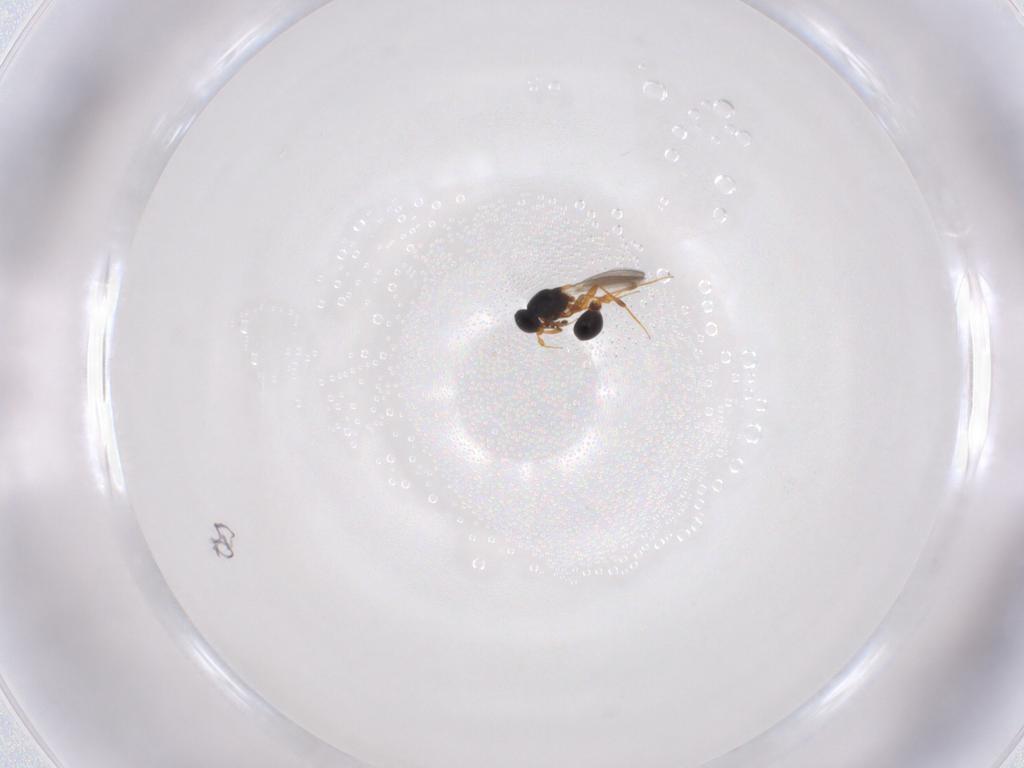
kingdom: Animalia
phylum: Arthropoda
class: Insecta
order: Hymenoptera
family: Platygastridae
